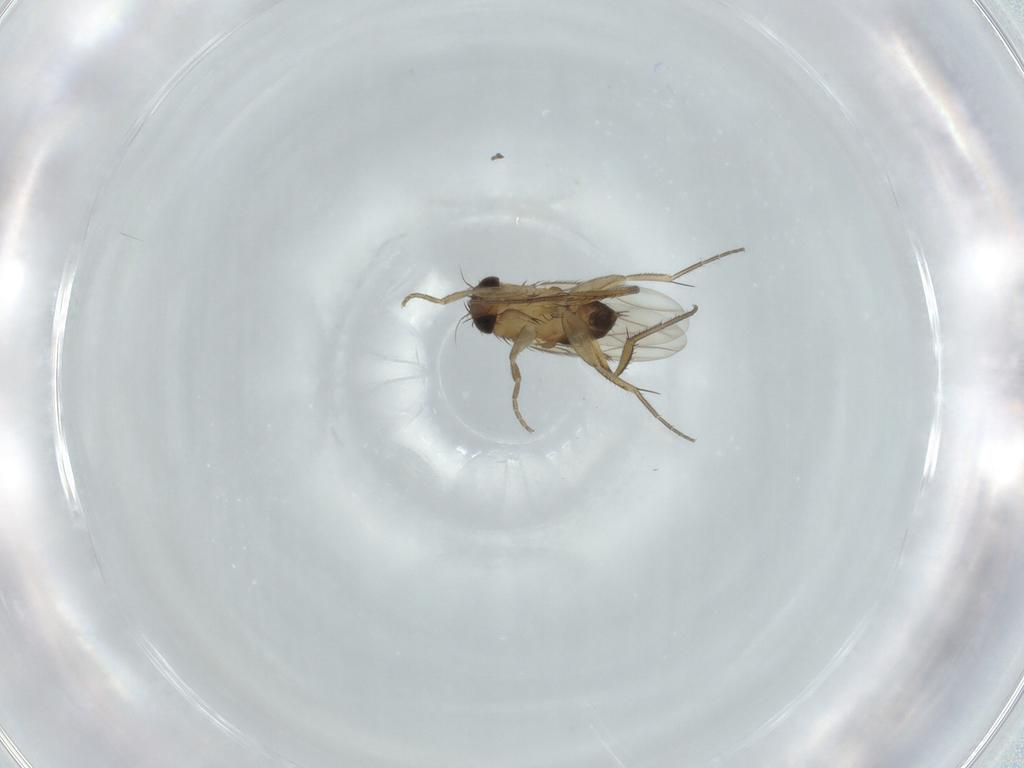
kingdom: Animalia
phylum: Arthropoda
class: Insecta
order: Diptera
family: Phoridae
